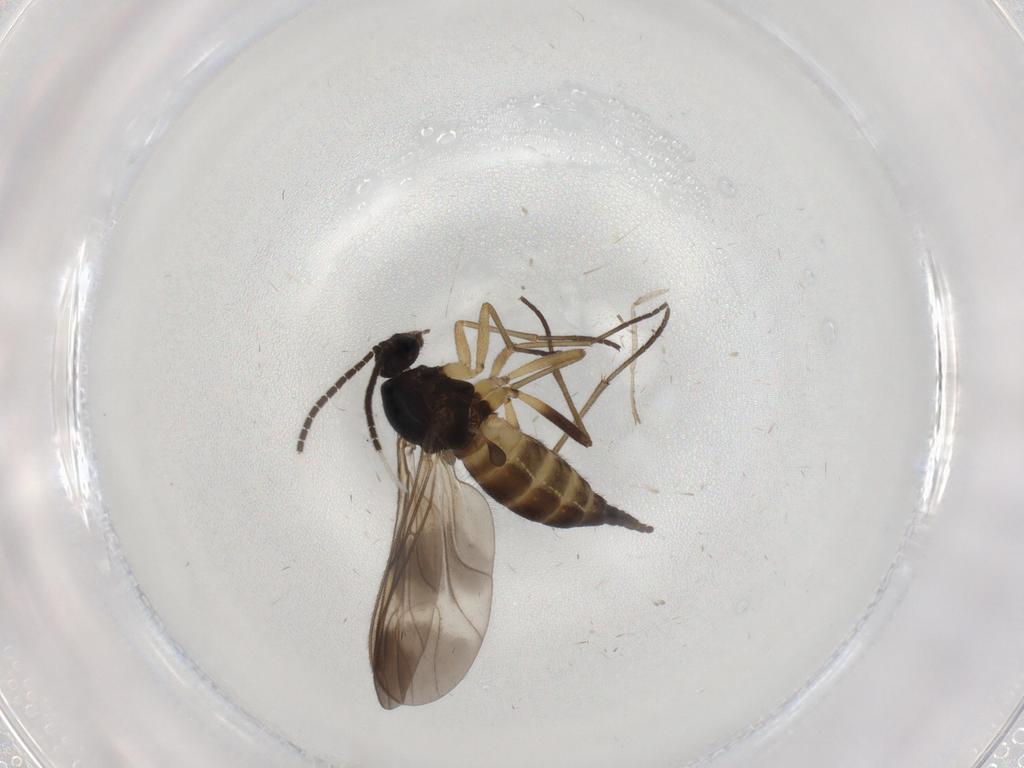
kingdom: Animalia
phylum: Arthropoda
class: Insecta
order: Diptera
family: Sciaridae
